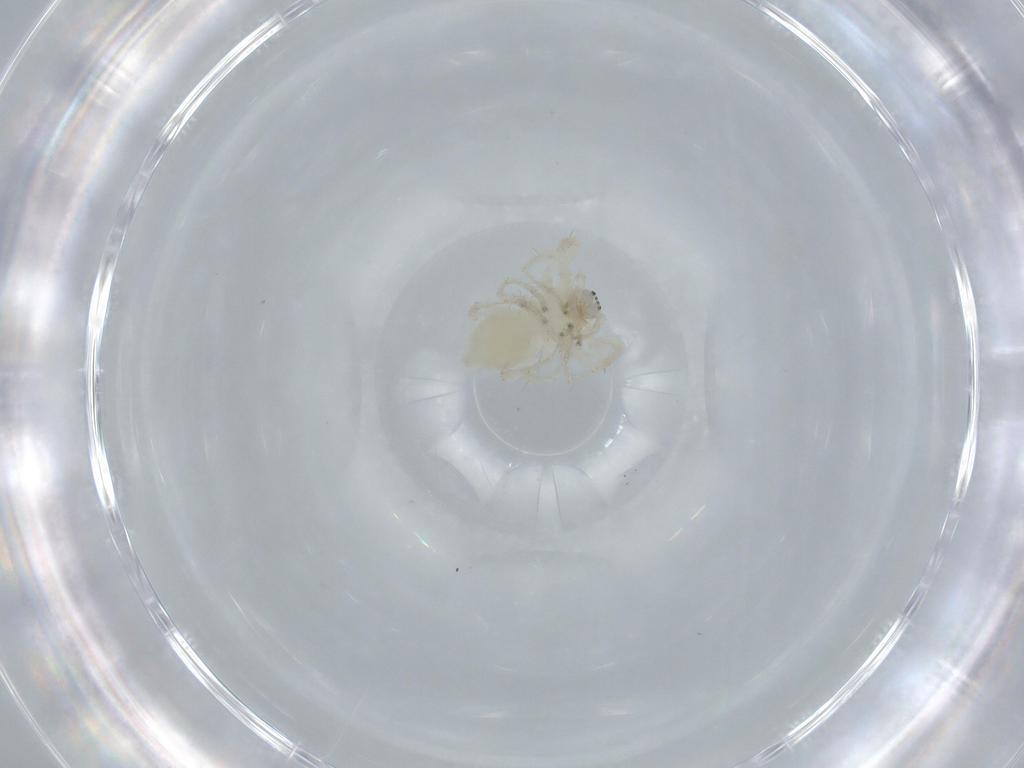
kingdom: Animalia
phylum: Arthropoda
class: Arachnida
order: Araneae
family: Anyphaenidae
